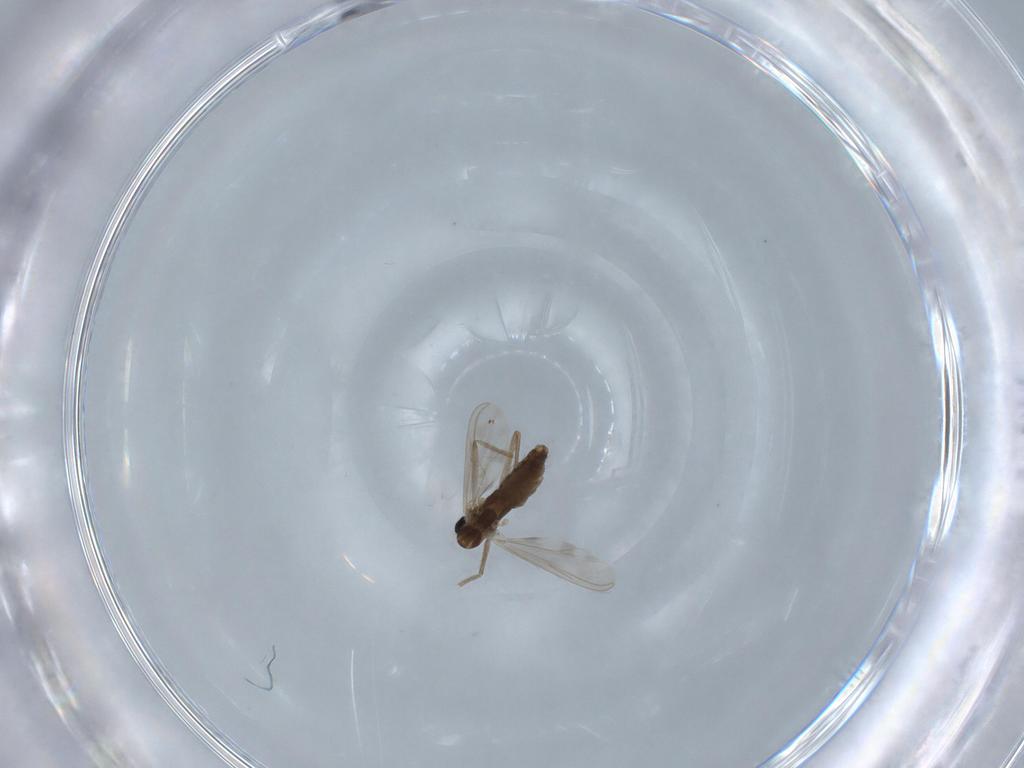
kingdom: Animalia
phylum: Arthropoda
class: Insecta
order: Diptera
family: Chironomidae
